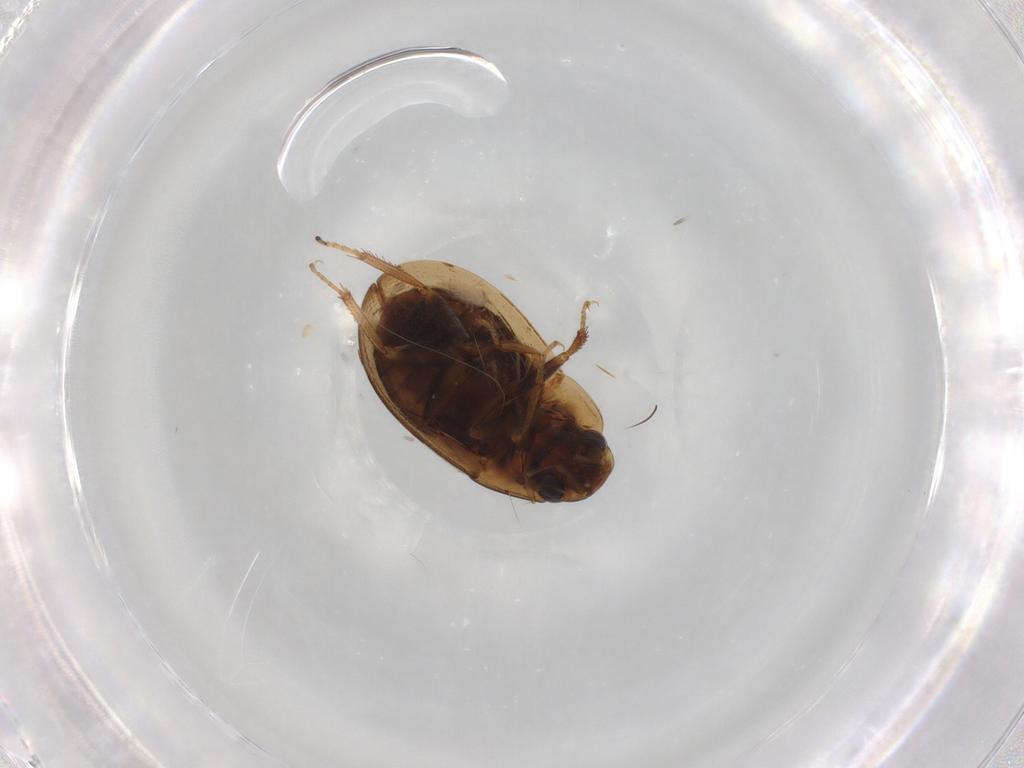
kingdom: Animalia
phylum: Arthropoda
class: Insecta
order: Coleoptera
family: Hydrophilidae
